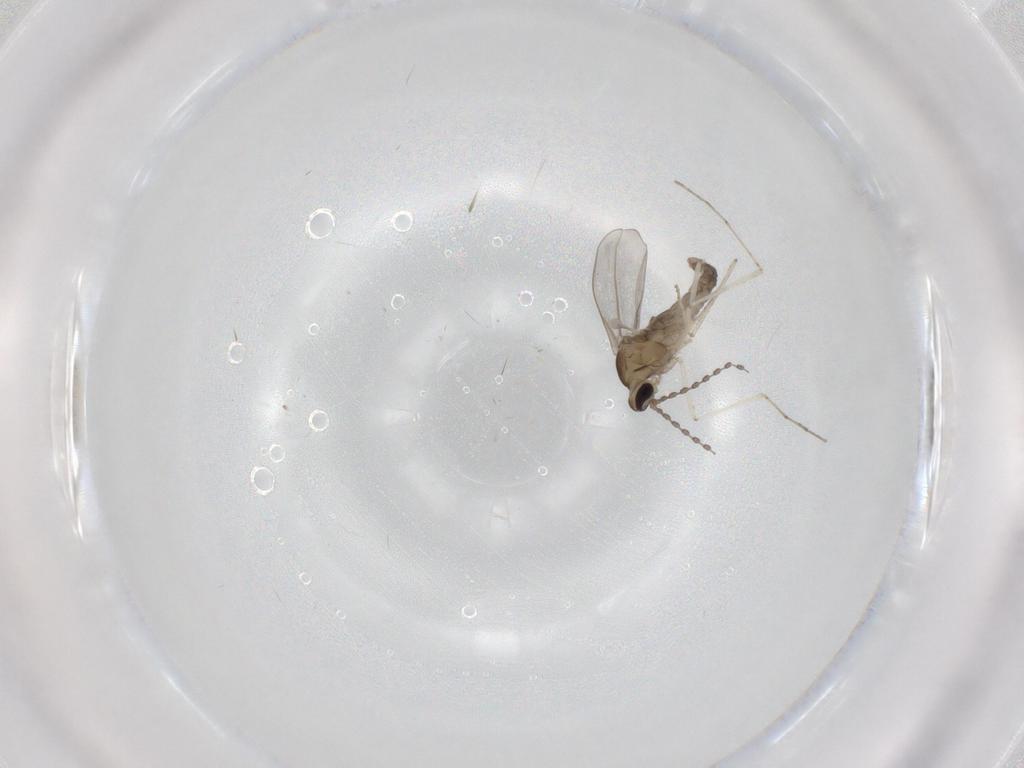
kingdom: Animalia
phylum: Arthropoda
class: Insecta
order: Diptera
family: Cecidomyiidae
